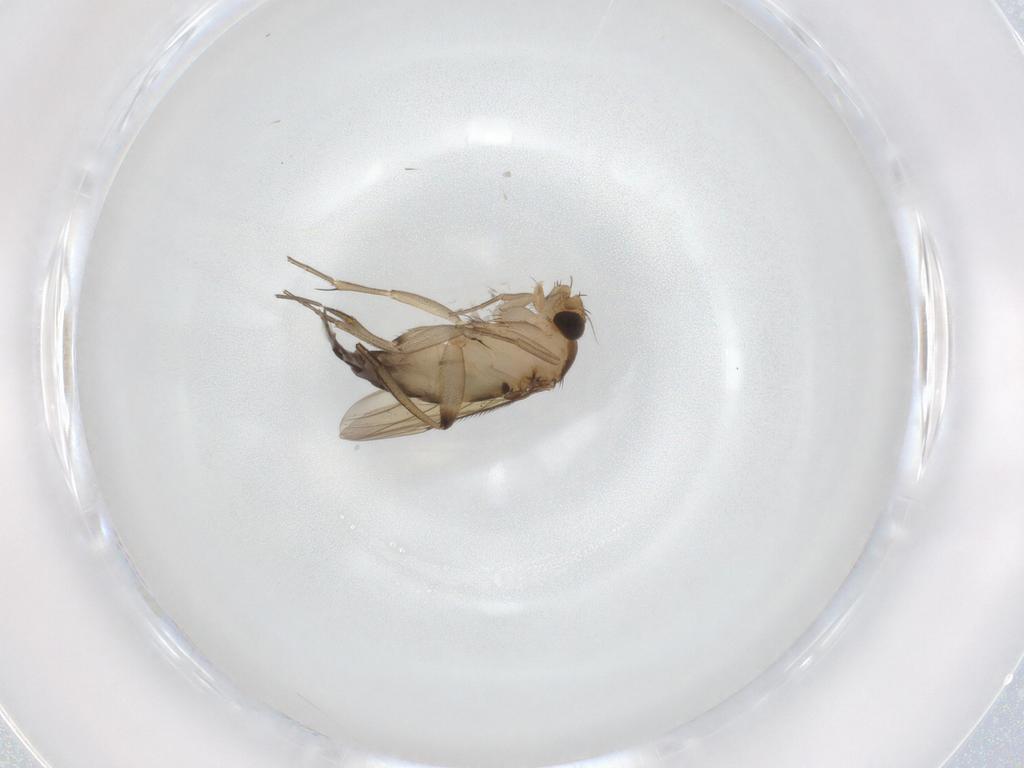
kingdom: Animalia
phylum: Arthropoda
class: Insecta
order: Diptera
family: Phoridae
